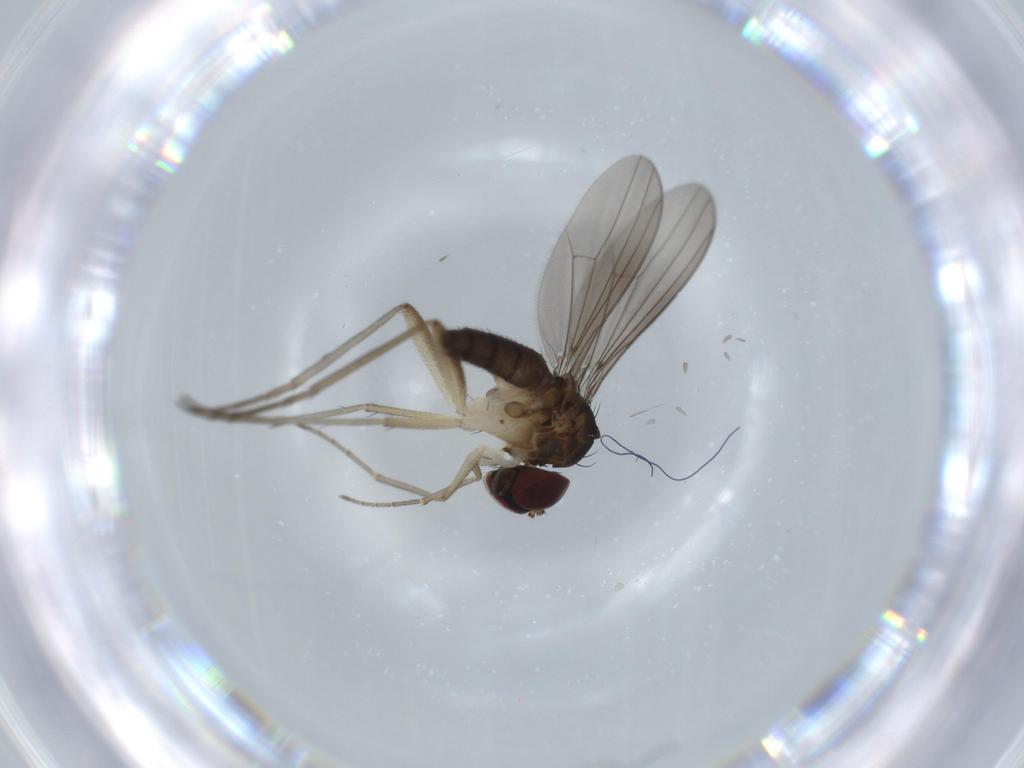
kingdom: Animalia
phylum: Arthropoda
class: Insecta
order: Diptera
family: Dolichopodidae
